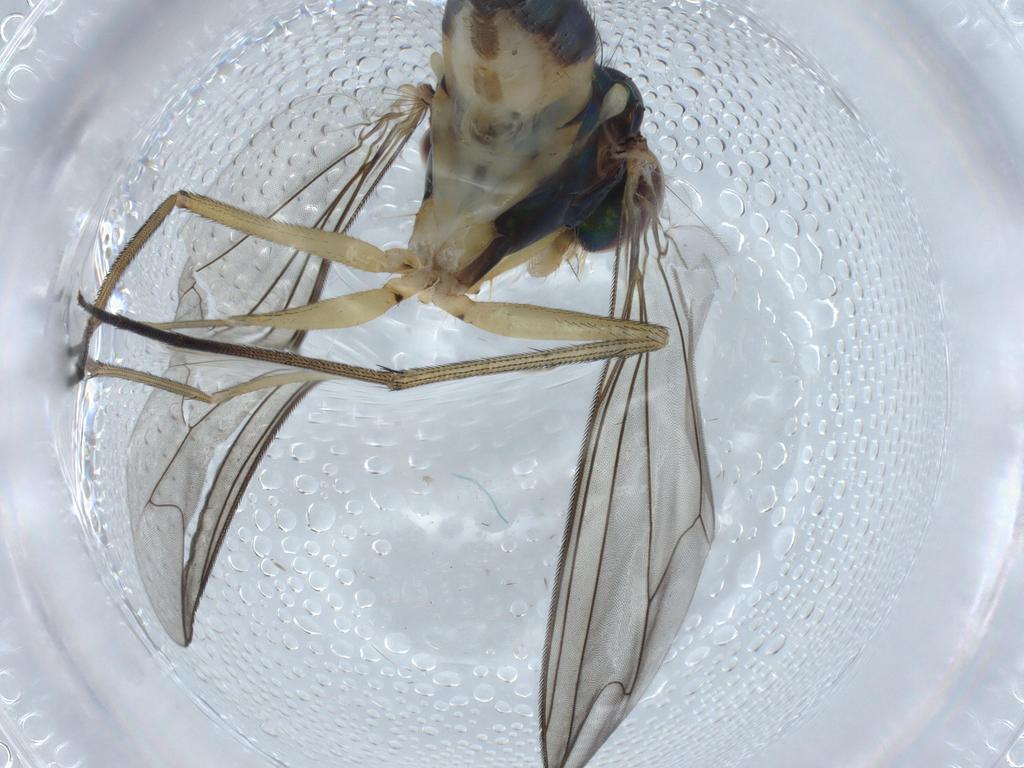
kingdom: Animalia
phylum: Arthropoda
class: Insecta
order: Diptera
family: Dolichopodidae
